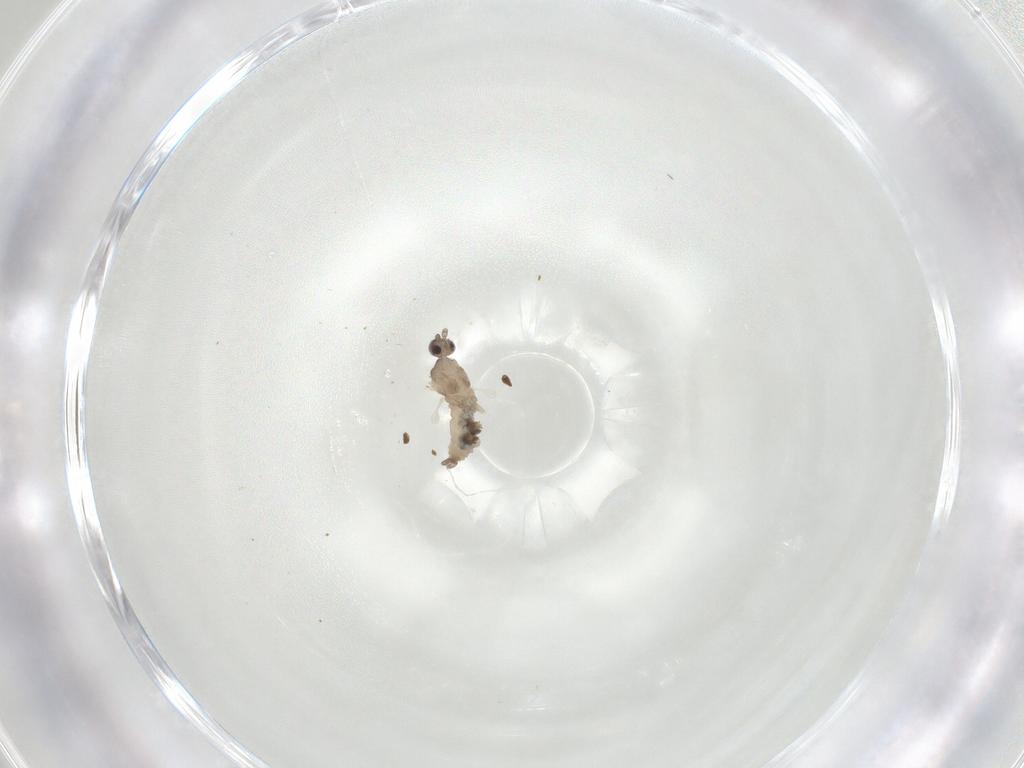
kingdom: Animalia
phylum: Arthropoda
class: Insecta
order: Diptera
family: Cecidomyiidae
